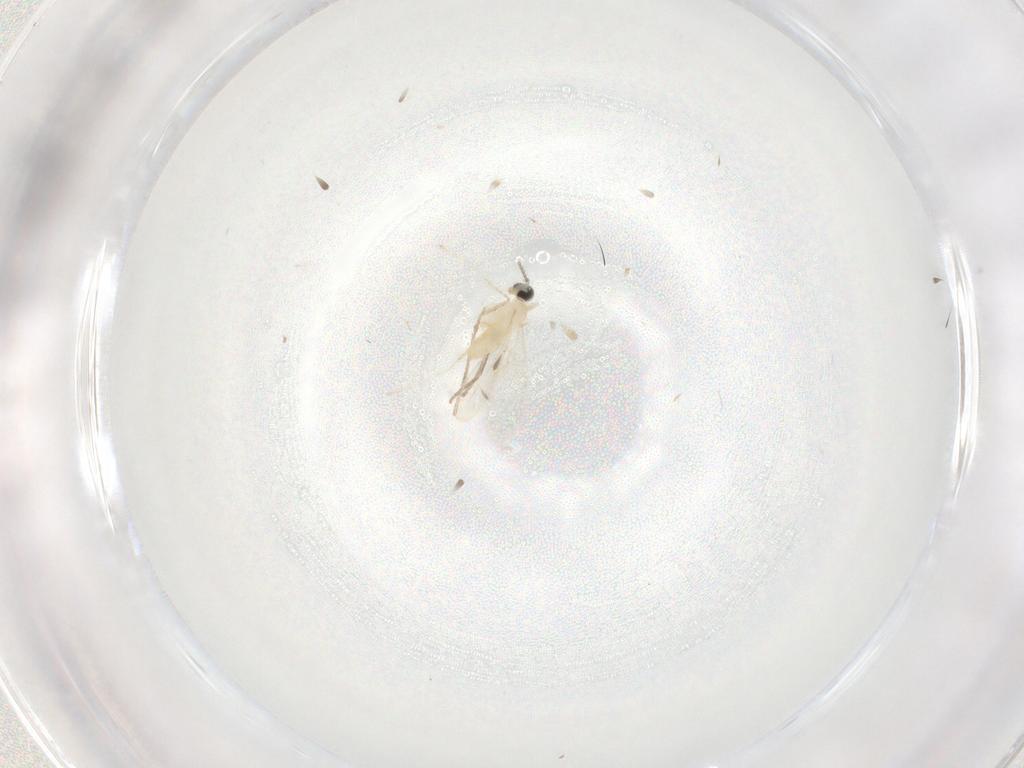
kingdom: Animalia
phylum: Arthropoda
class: Insecta
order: Diptera
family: Cecidomyiidae
